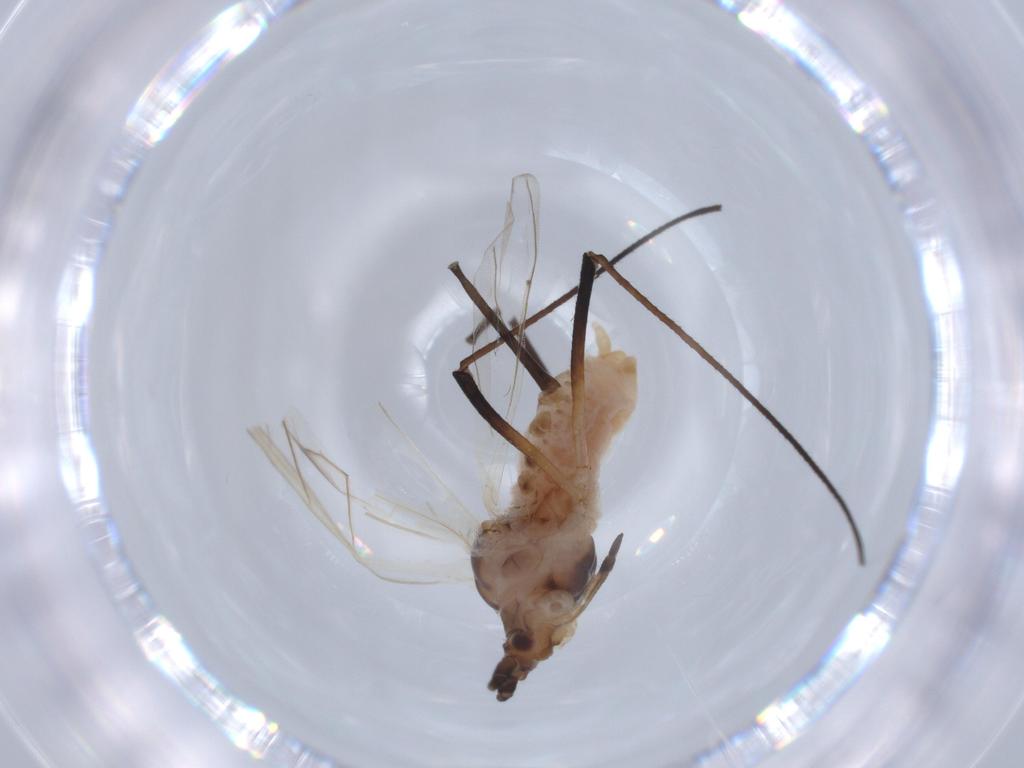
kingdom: Animalia
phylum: Arthropoda
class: Insecta
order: Hemiptera
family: Aphididae
